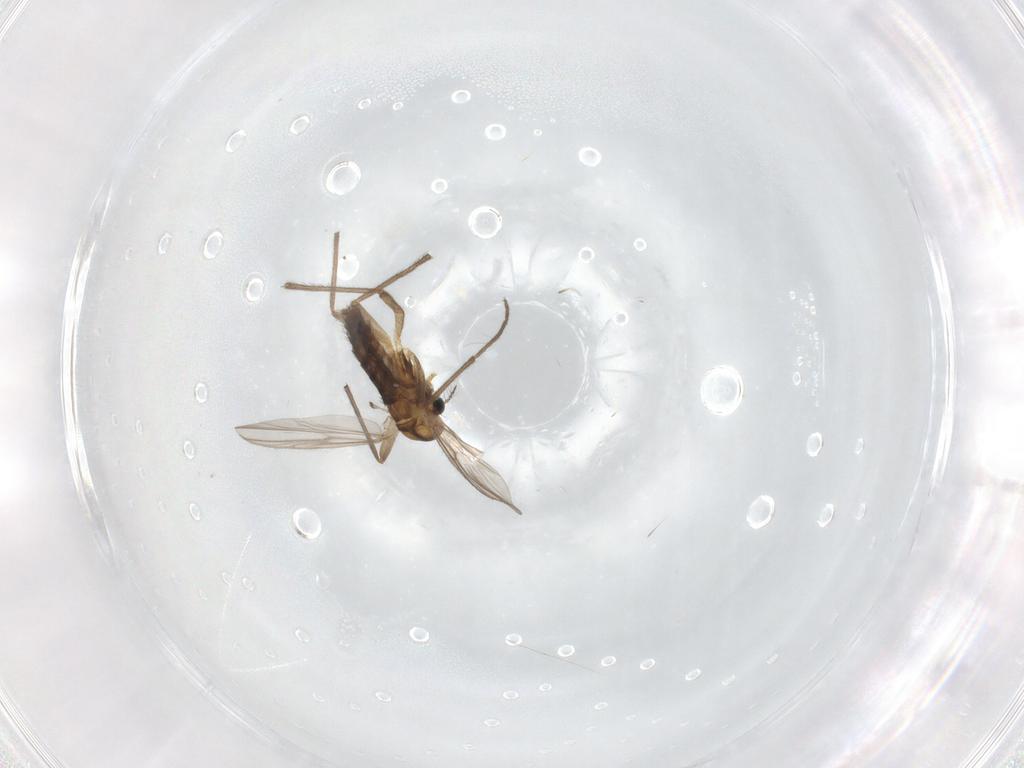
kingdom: Animalia
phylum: Arthropoda
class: Insecta
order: Diptera
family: Chironomidae
